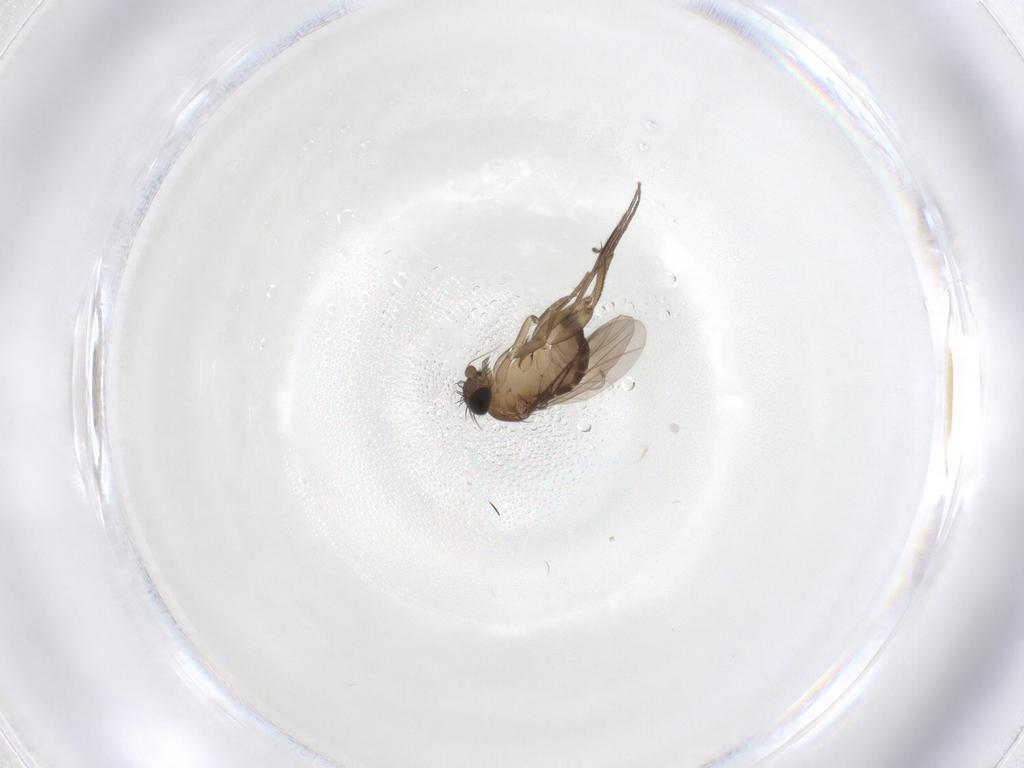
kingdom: Animalia
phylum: Arthropoda
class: Insecta
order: Diptera
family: Phoridae
